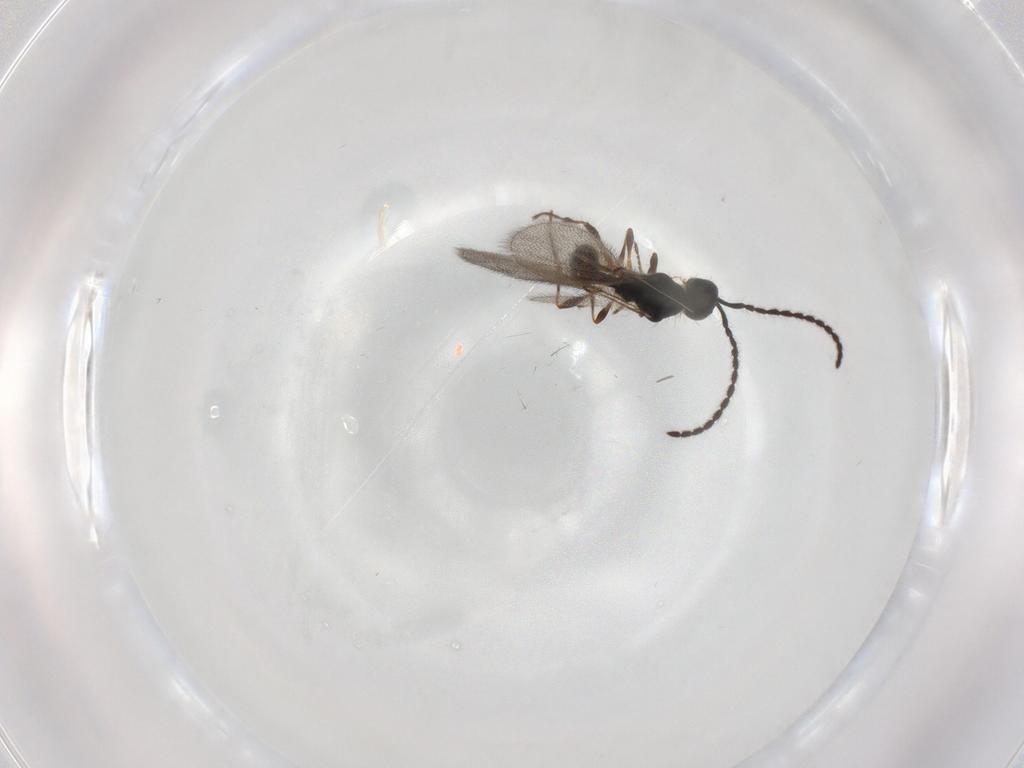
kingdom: Animalia
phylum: Arthropoda
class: Insecta
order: Hymenoptera
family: Diapriidae
